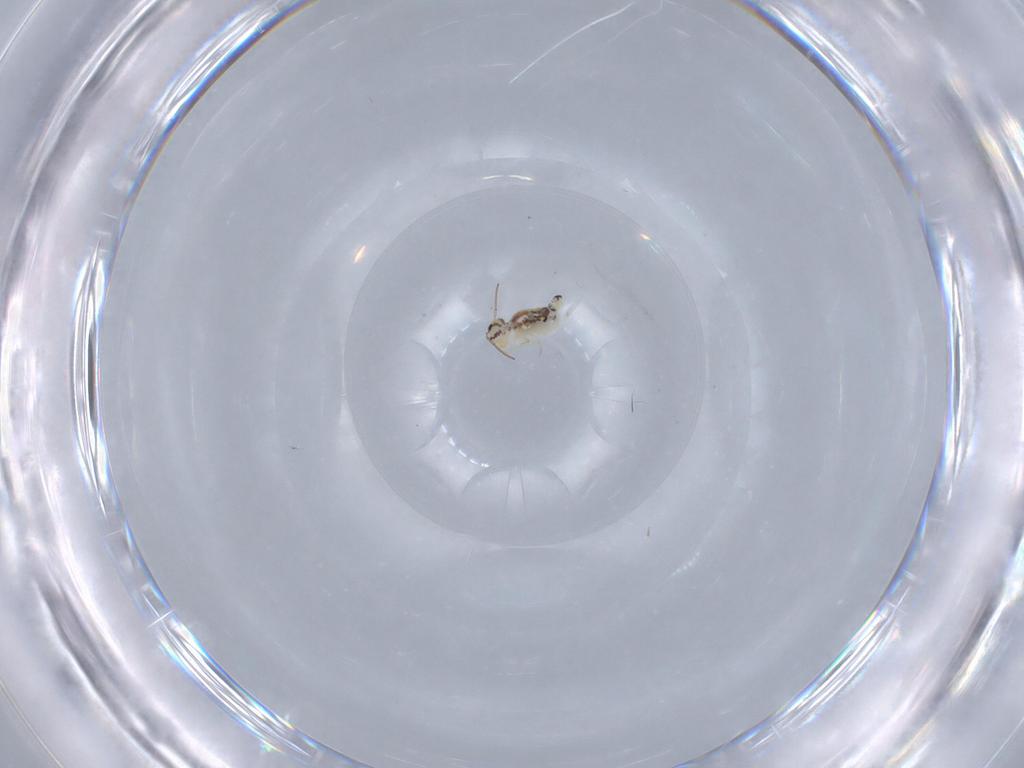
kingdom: Animalia
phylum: Arthropoda
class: Collembola
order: Symphypleona
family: Bourletiellidae
